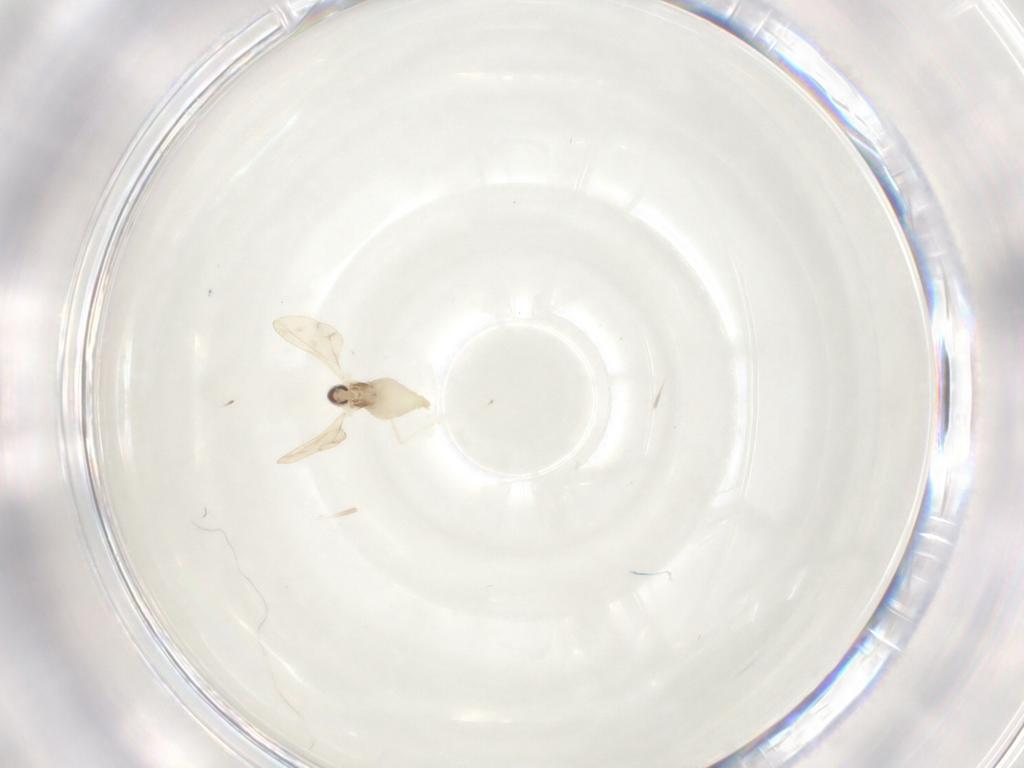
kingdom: Animalia
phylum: Arthropoda
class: Insecta
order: Diptera
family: Cecidomyiidae
